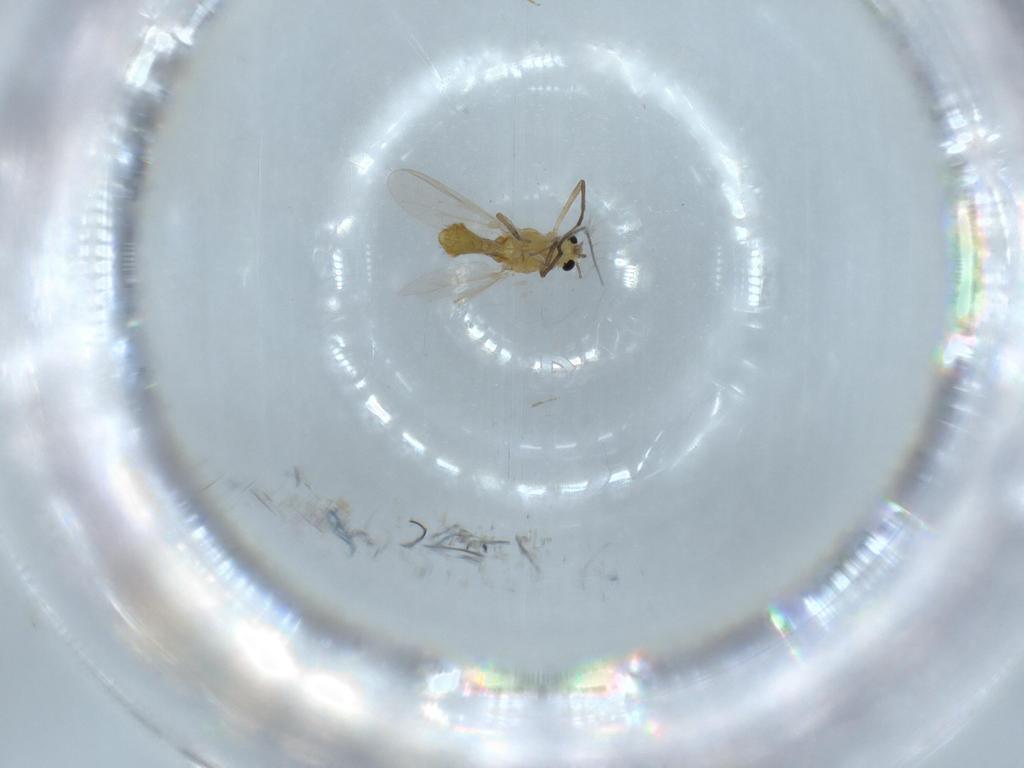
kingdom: Animalia
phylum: Arthropoda
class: Insecta
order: Diptera
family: Chironomidae
